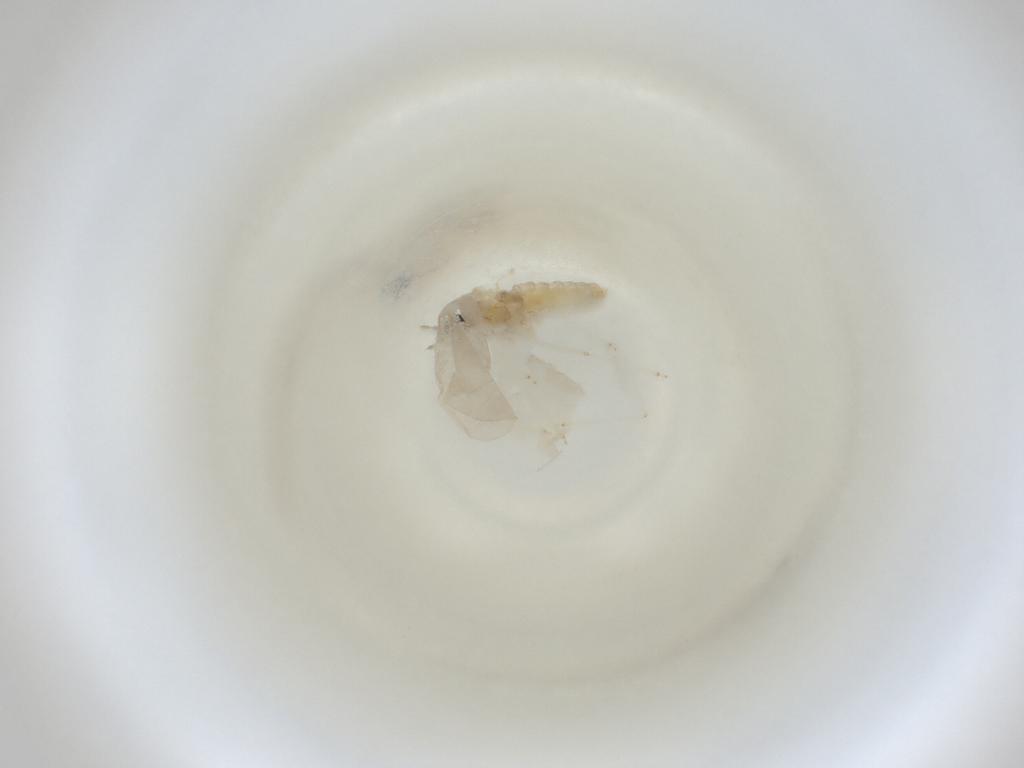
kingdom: Animalia
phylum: Arthropoda
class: Insecta
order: Diptera
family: Cecidomyiidae
